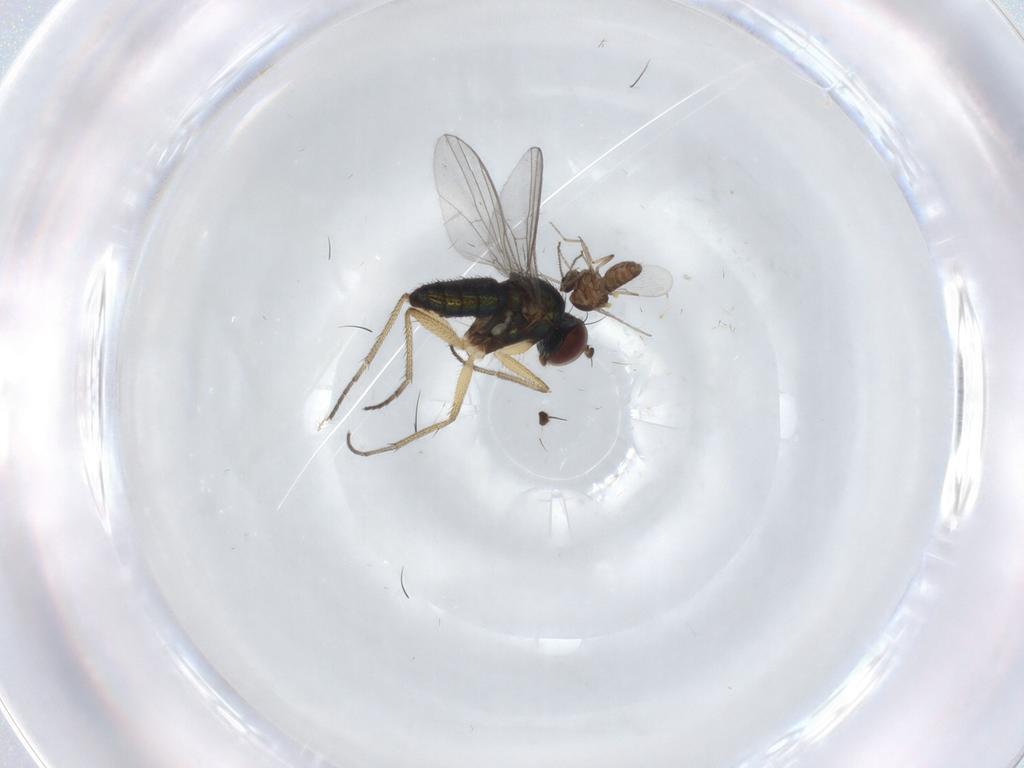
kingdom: Animalia
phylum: Arthropoda
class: Insecta
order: Diptera
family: Ceratopogonidae
